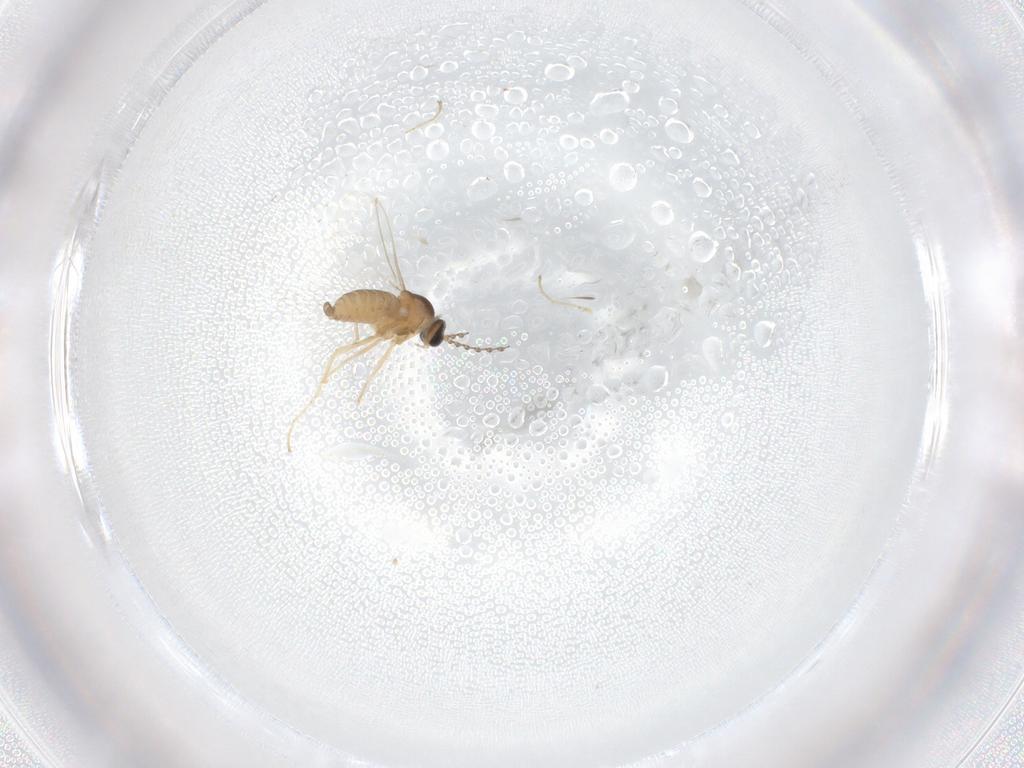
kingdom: Animalia
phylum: Arthropoda
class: Insecta
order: Diptera
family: Cecidomyiidae
